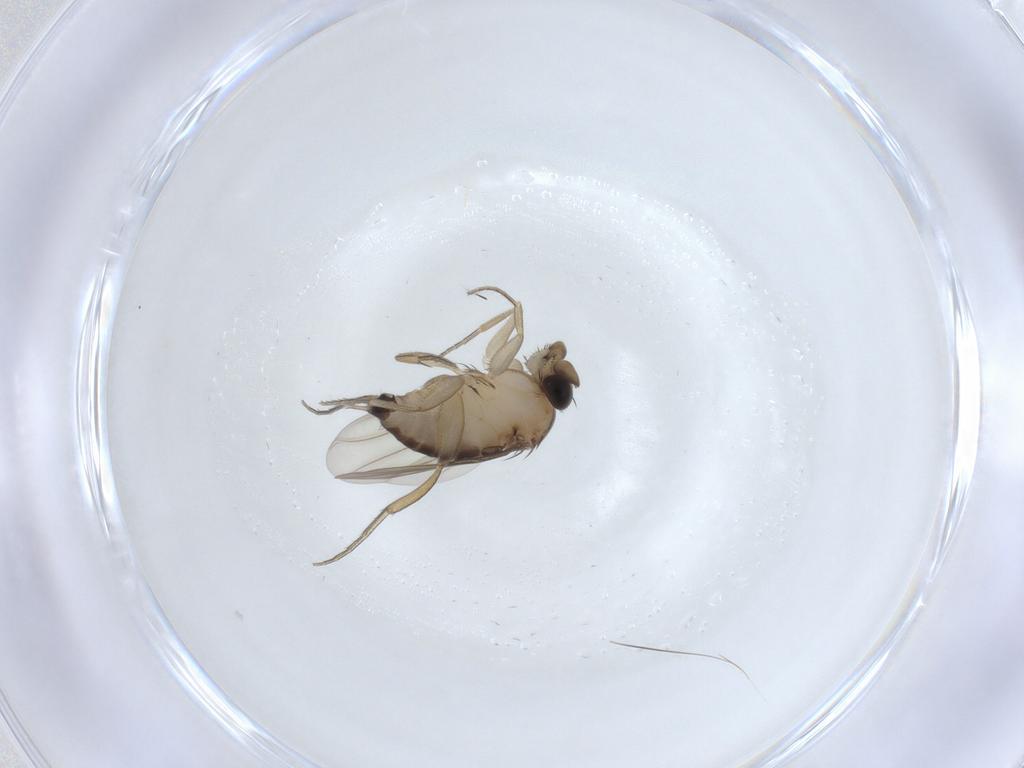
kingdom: Animalia
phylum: Arthropoda
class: Insecta
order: Diptera
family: Phoridae
